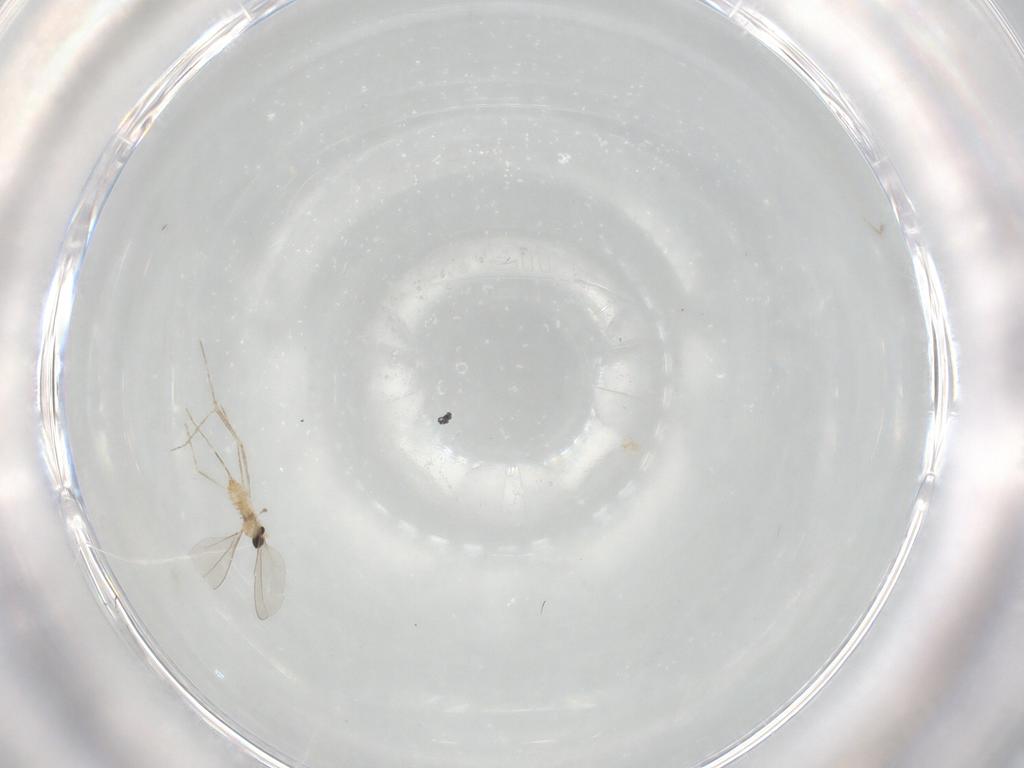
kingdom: Animalia
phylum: Arthropoda
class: Insecta
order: Diptera
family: Cecidomyiidae
